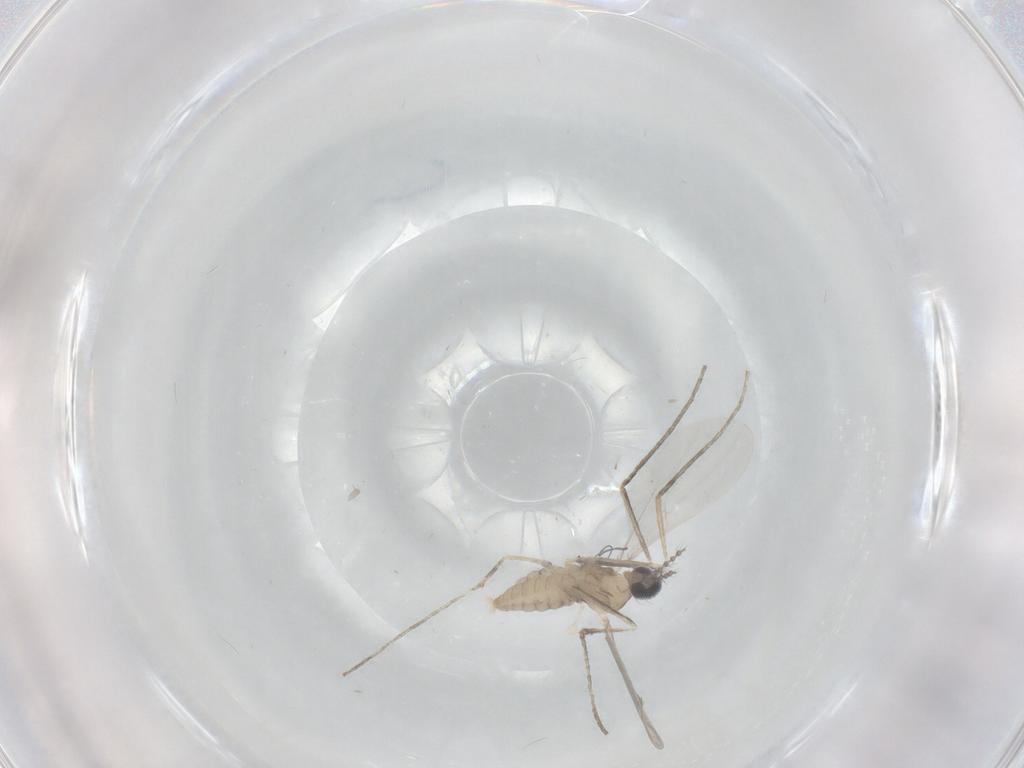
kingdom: Animalia
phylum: Arthropoda
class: Insecta
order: Diptera
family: Cecidomyiidae
